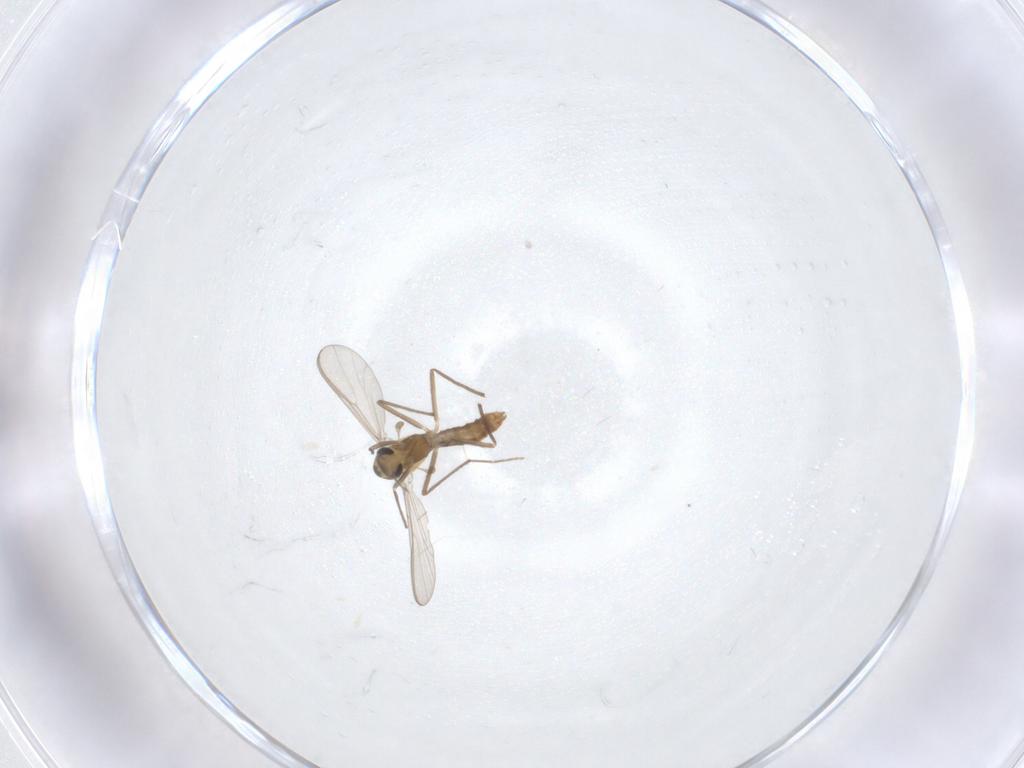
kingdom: Animalia
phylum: Arthropoda
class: Insecta
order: Diptera
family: Chironomidae
